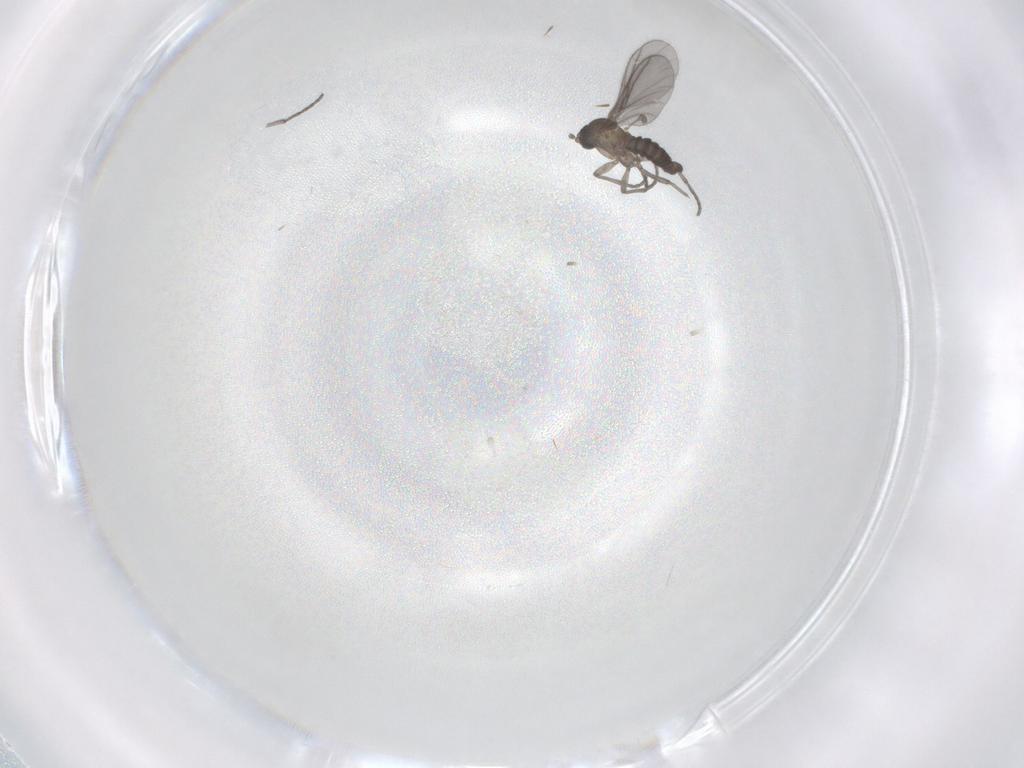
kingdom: Animalia
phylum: Arthropoda
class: Insecta
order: Diptera
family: Sciaridae
